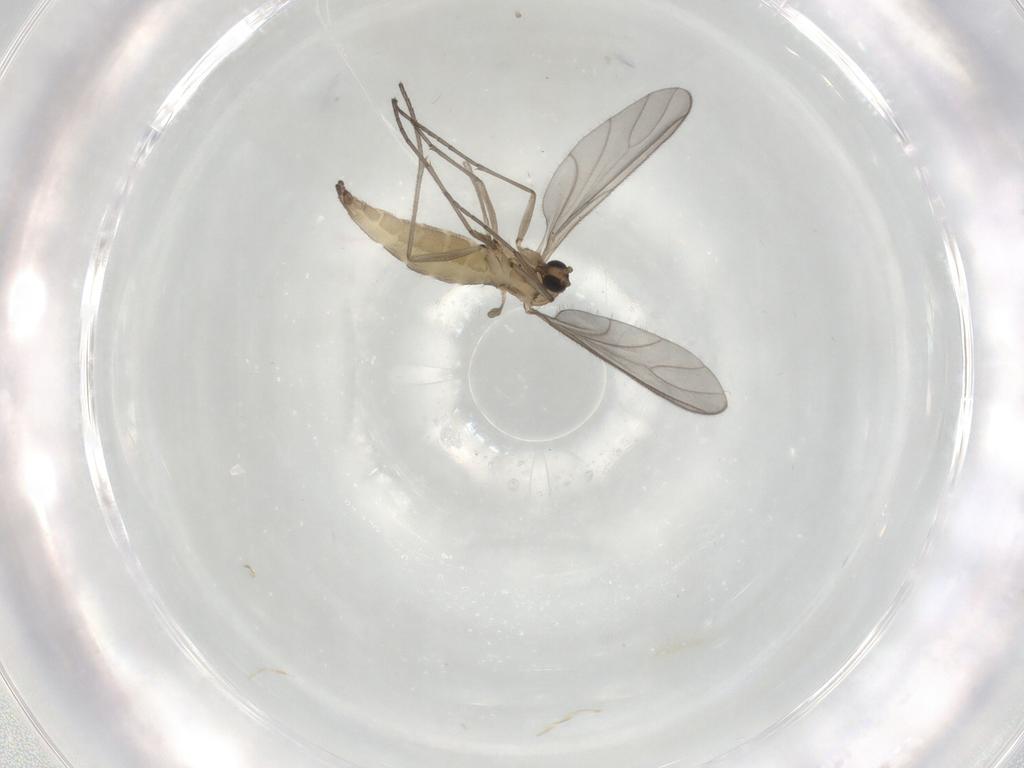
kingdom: Animalia
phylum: Arthropoda
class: Insecta
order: Diptera
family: Sciaridae
